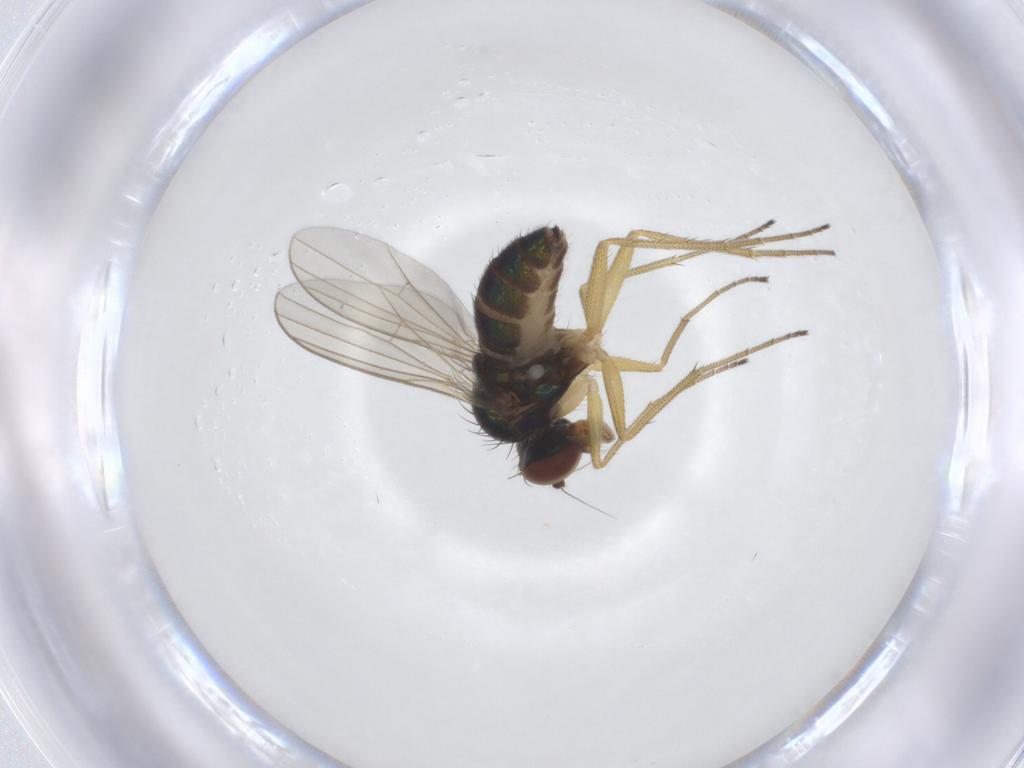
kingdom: Animalia
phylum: Arthropoda
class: Insecta
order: Diptera
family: Dolichopodidae
